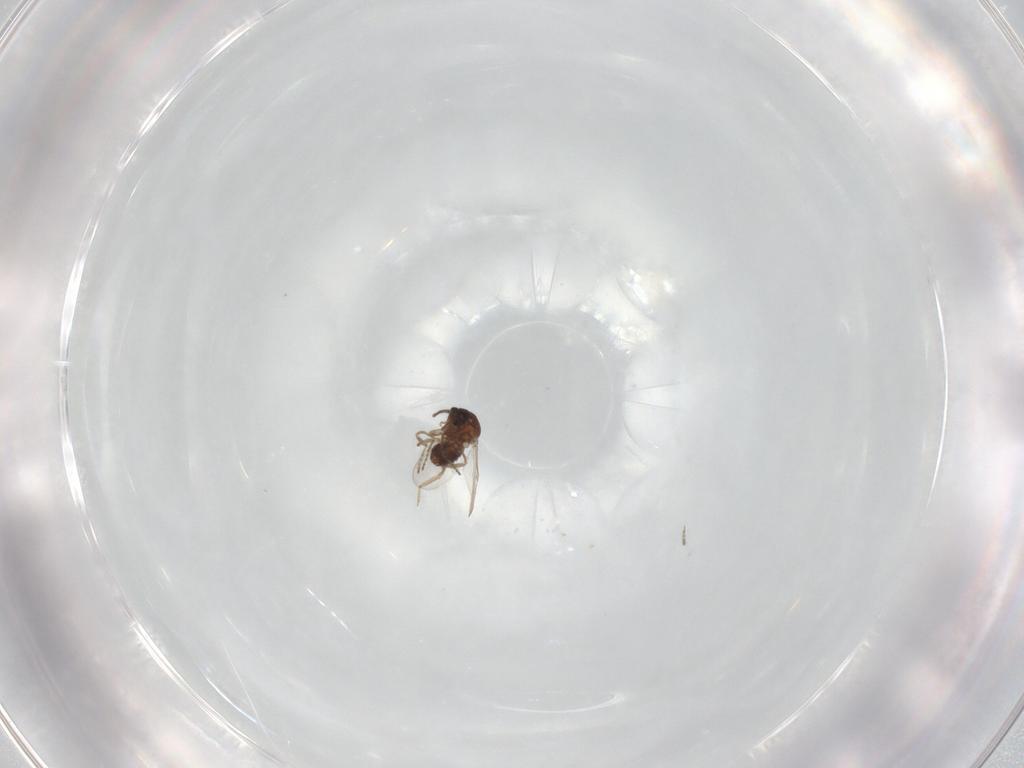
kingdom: Animalia
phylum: Arthropoda
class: Insecta
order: Diptera
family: Ceratopogonidae
